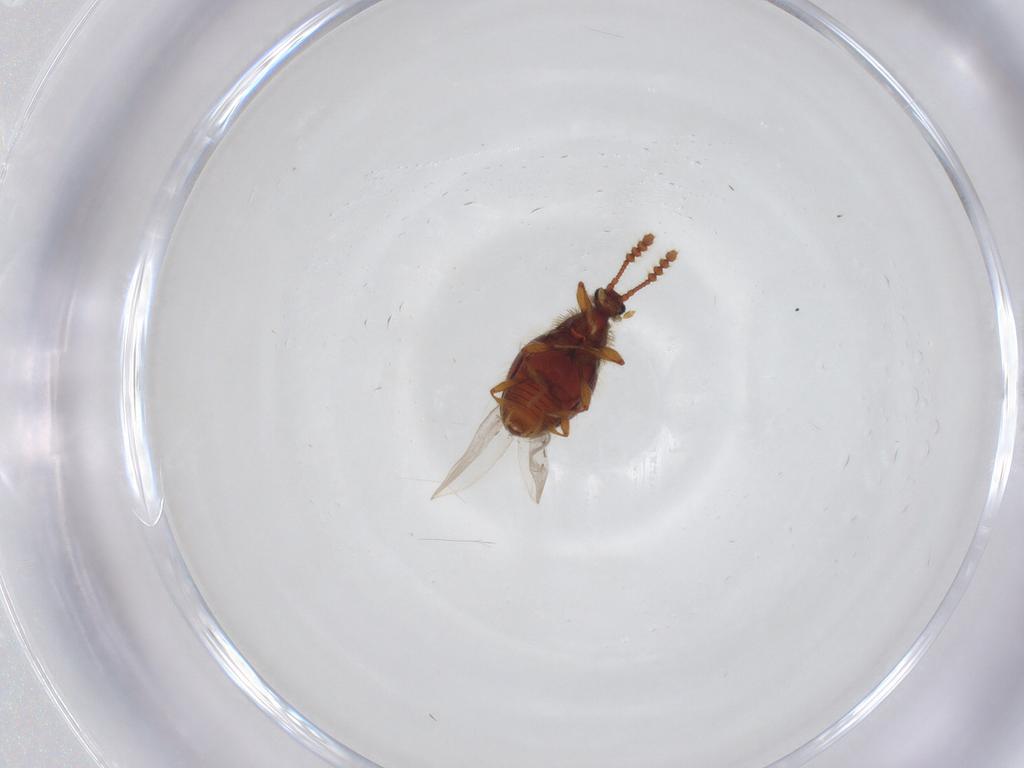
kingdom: Animalia
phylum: Arthropoda
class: Insecta
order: Coleoptera
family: Staphylinidae
